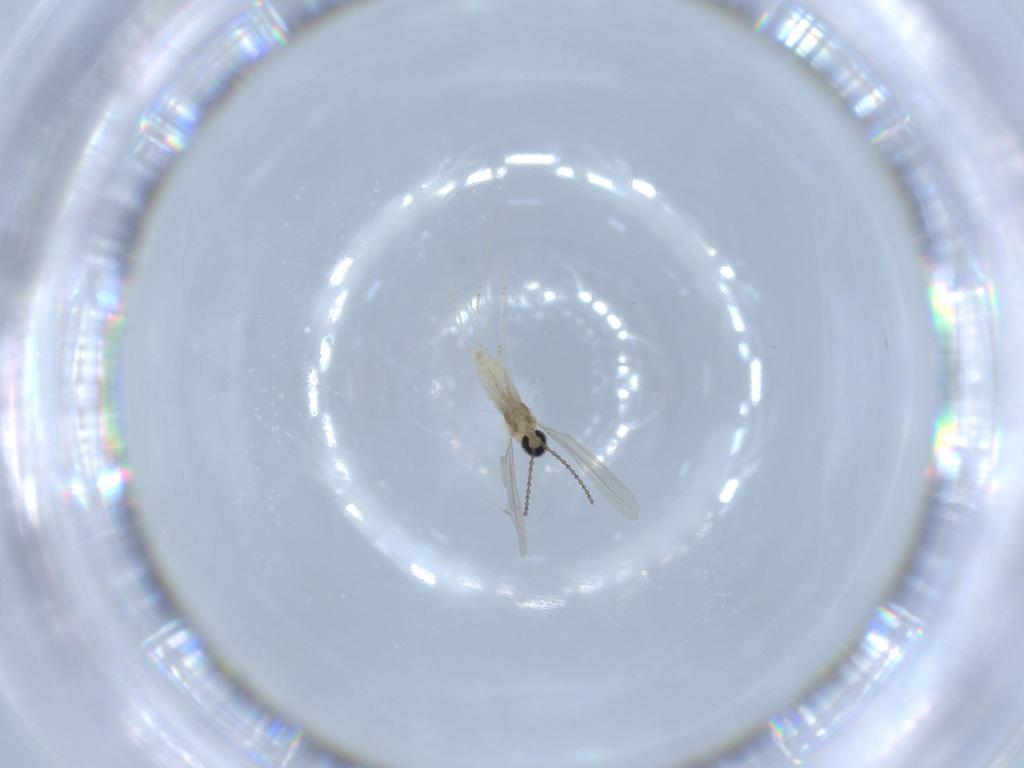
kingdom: Animalia
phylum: Arthropoda
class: Insecta
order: Diptera
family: Cecidomyiidae
